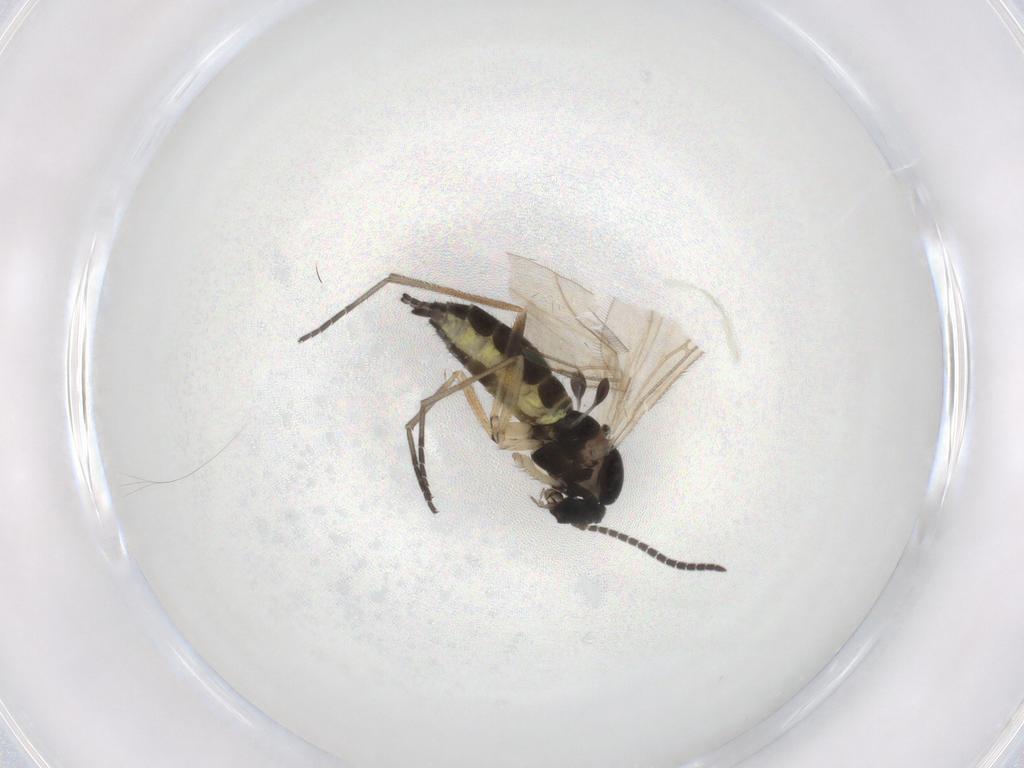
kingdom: Animalia
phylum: Arthropoda
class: Insecta
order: Diptera
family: Sciaridae
